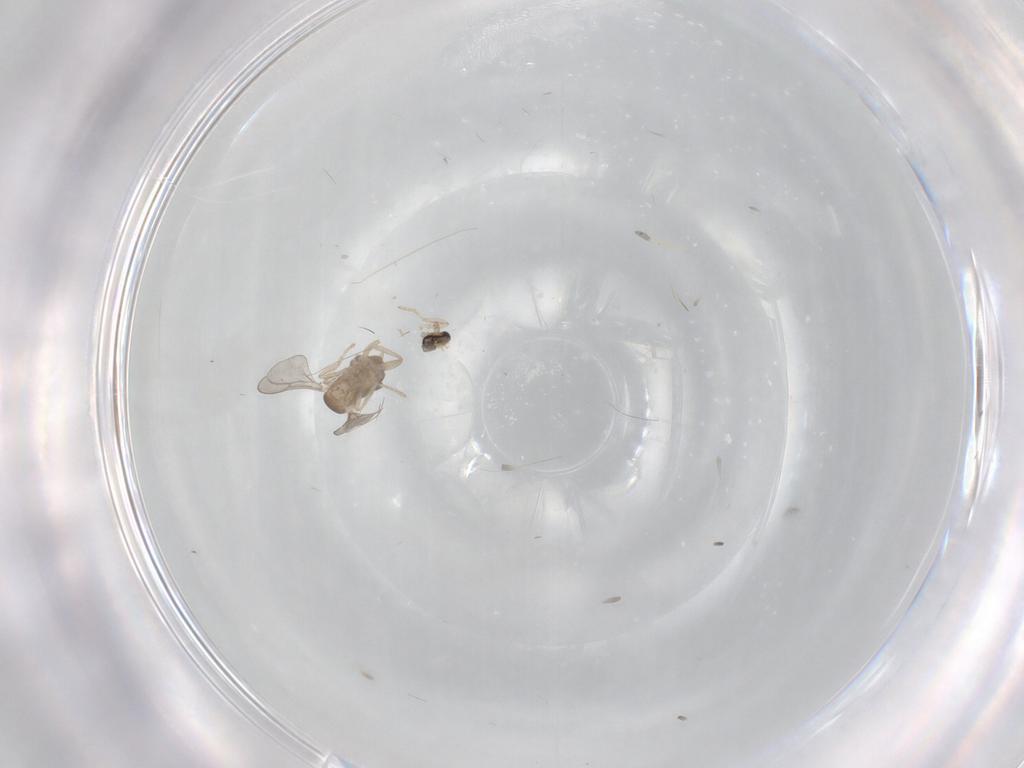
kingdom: Animalia
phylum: Arthropoda
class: Insecta
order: Diptera
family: Cecidomyiidae
